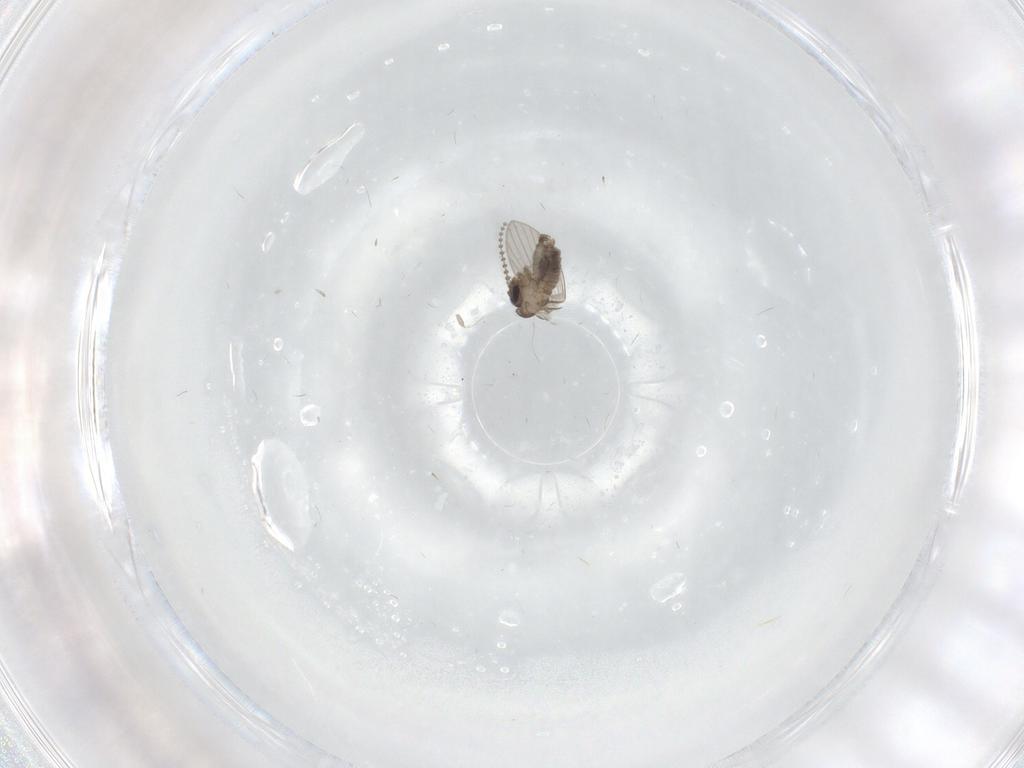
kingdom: Animalia
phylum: Arthropoda
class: Insecta
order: Diptera
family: Psychodidae
